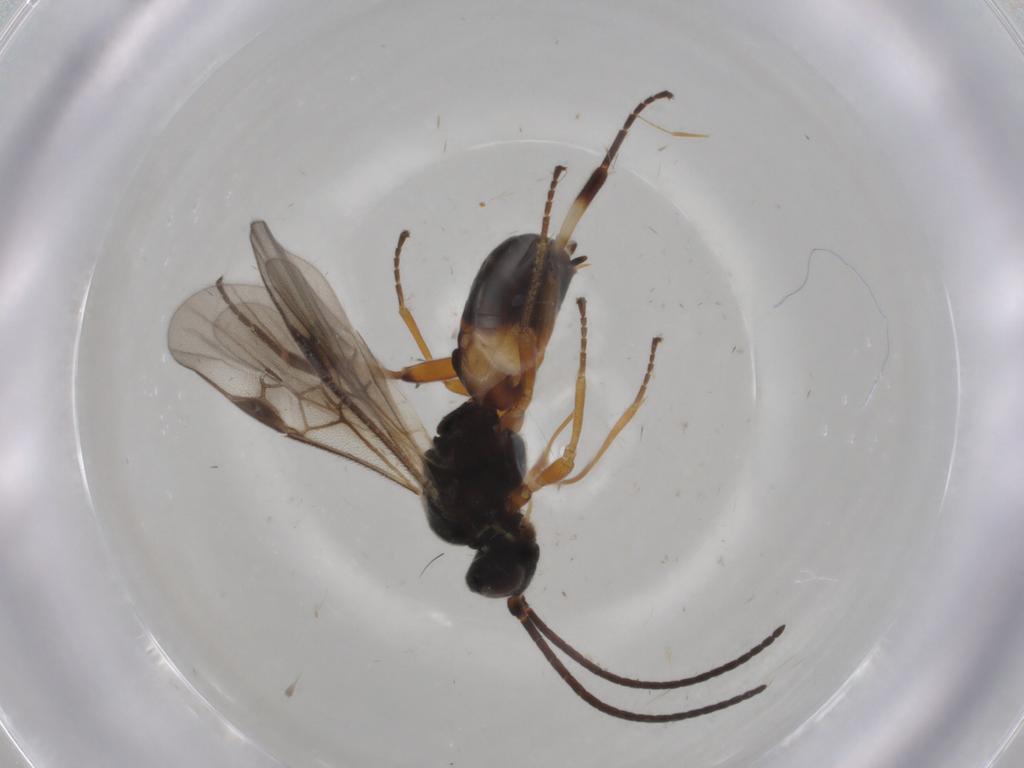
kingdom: Animalia
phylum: Arthropoda
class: Insecta
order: Hymenoptera
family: Braconidae
